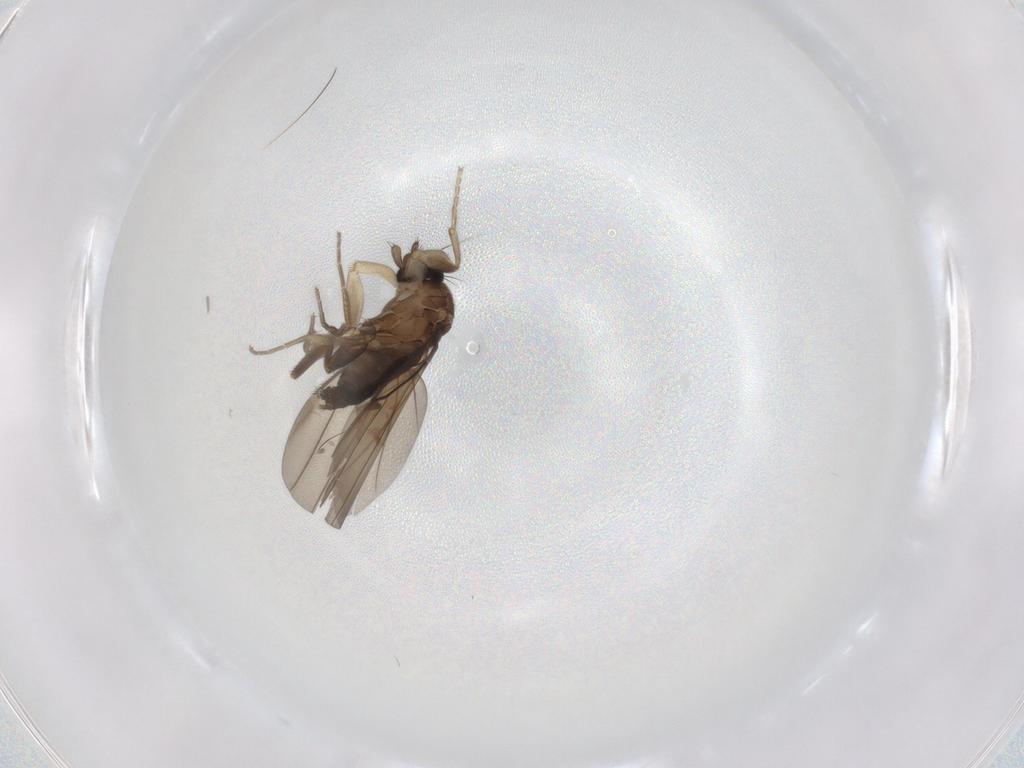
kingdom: Animalia
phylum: Arthropoda
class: Insecta
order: Diptera
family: Phoridae
